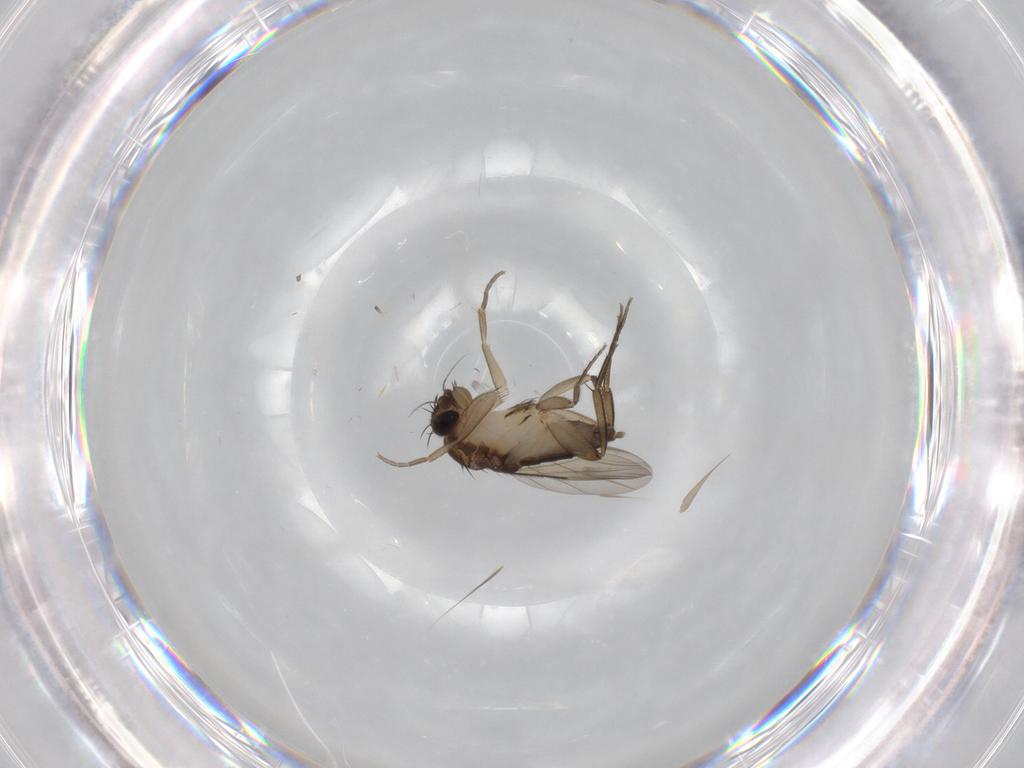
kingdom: Animalia
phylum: Arthropoda
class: Insecta
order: Diptera
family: Phoridae
